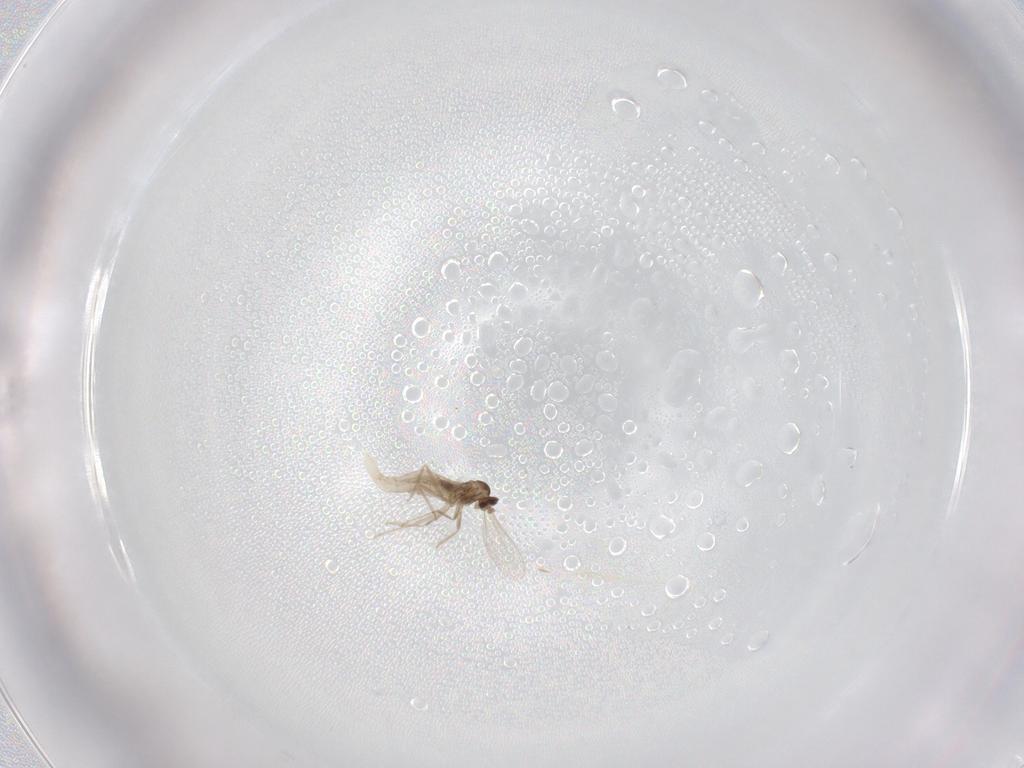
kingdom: Animalia
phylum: Arthropoda
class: Insecta
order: Diptera
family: Cecidomyiidae
